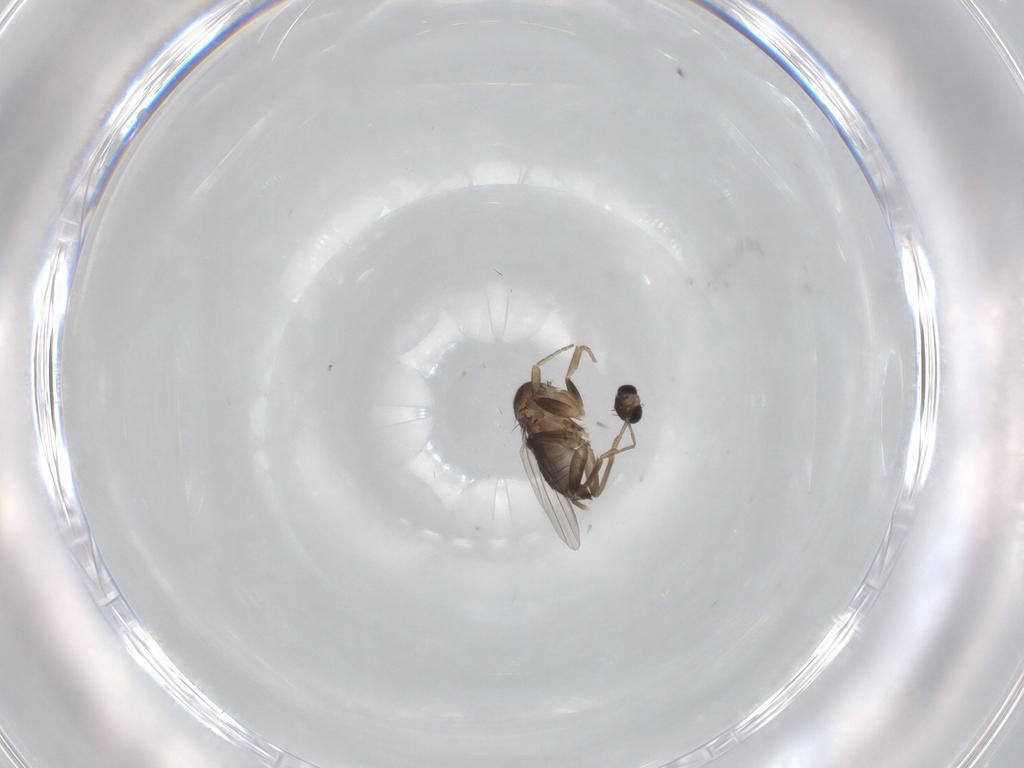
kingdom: Animalia
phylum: Arthropoda
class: Insecta
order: Diptera
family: Phoridae
